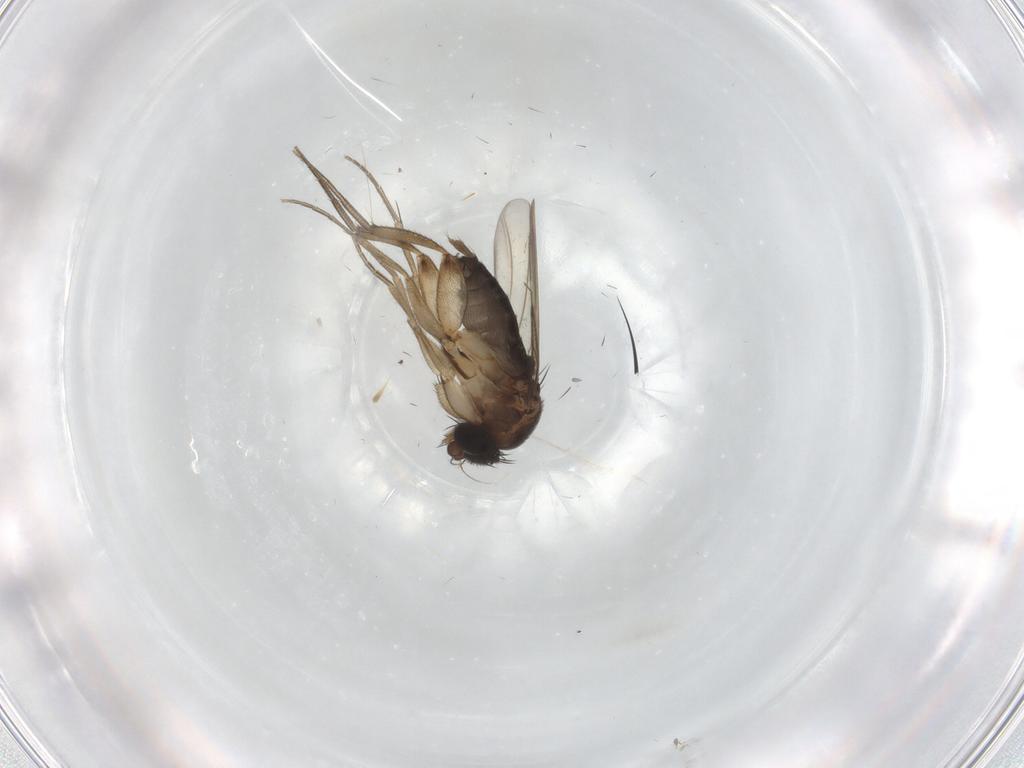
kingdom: Animalia
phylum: Arthropoda
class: Insecta
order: Diptera
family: Phoridae
